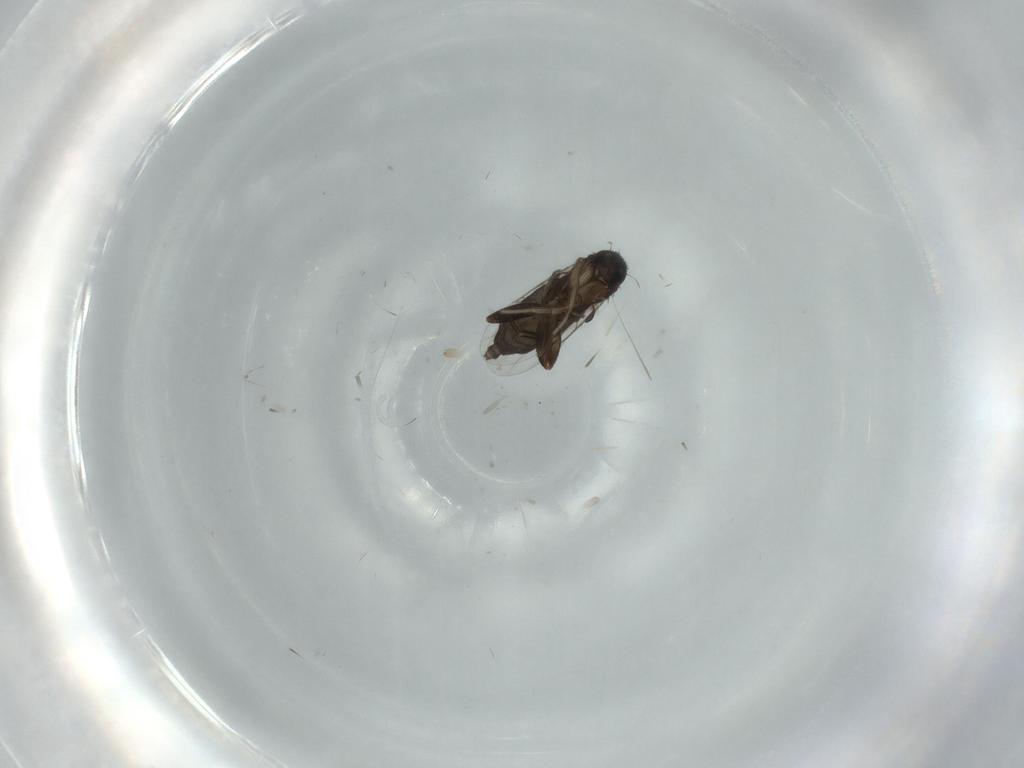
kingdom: Animalia
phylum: Arthropoda
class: Insecta
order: Diptera
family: Phoridae
